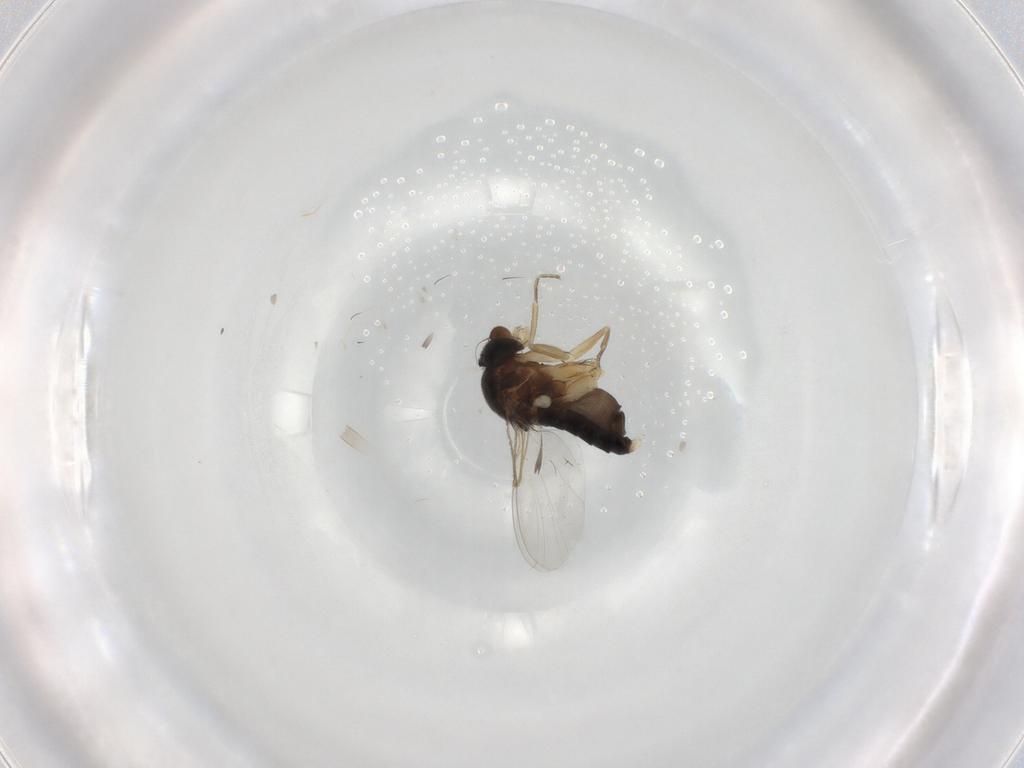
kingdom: Animalia
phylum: Arthropoda
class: Insecta
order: Diptera
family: Phoridae
